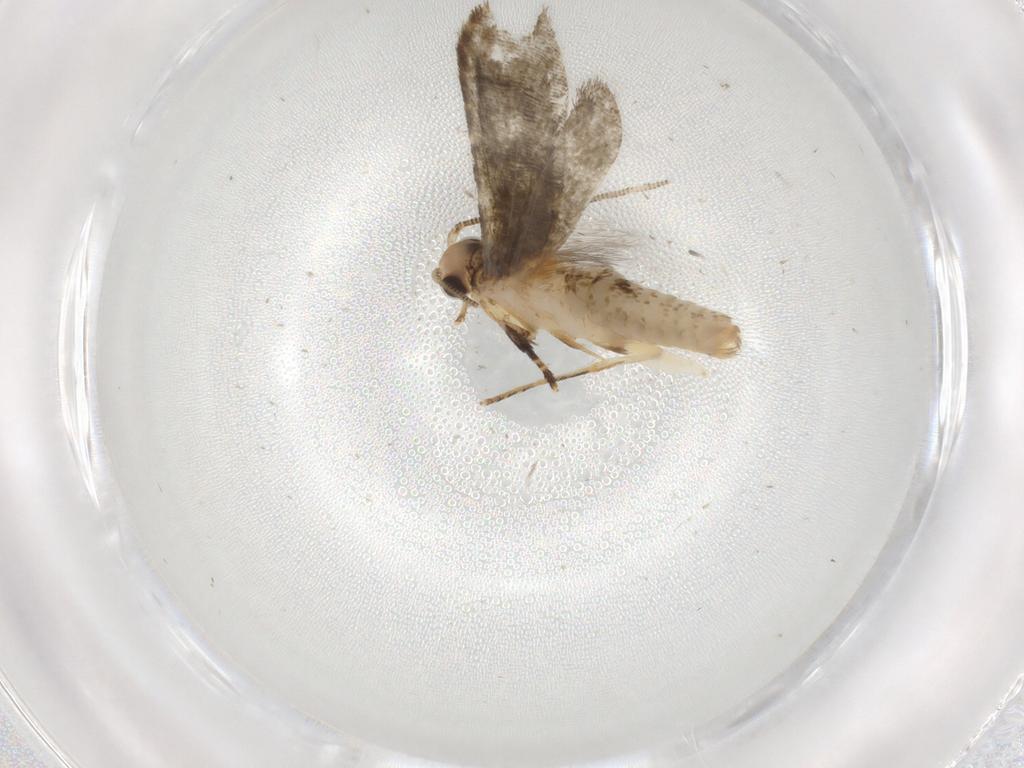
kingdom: Animalia
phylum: Arthropoda
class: Insecta
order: Lepidoptera
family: Tineidae
